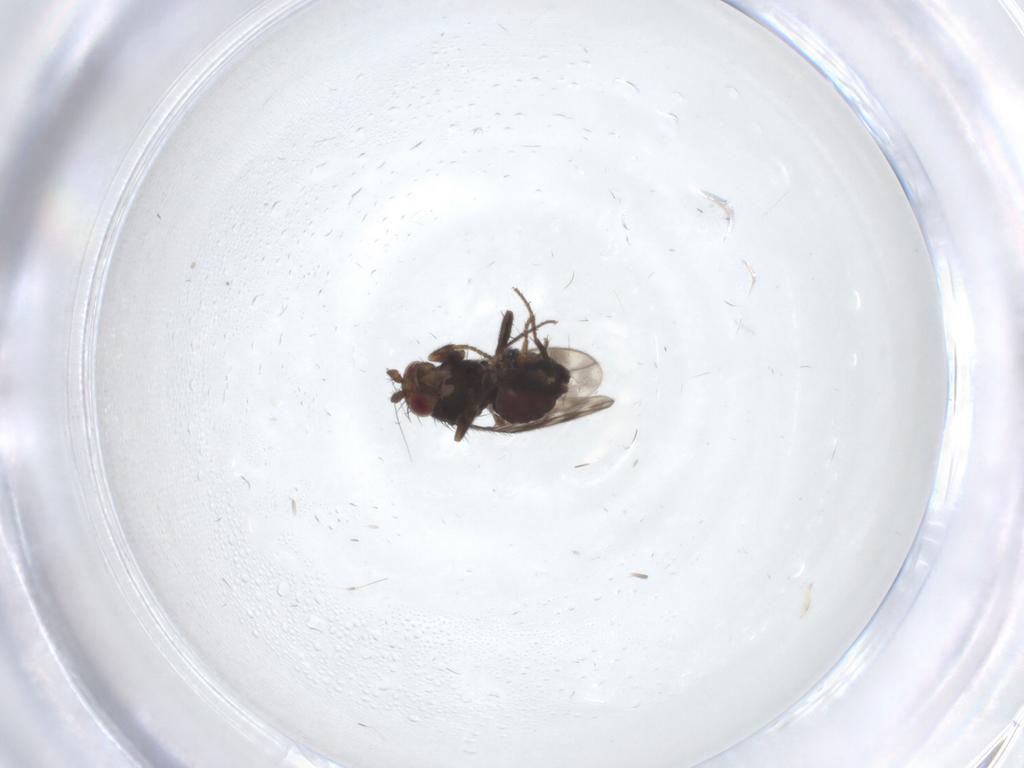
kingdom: Animalia
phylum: Arthropoda
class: Insecta
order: Diptera
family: Sphaeroceridae
